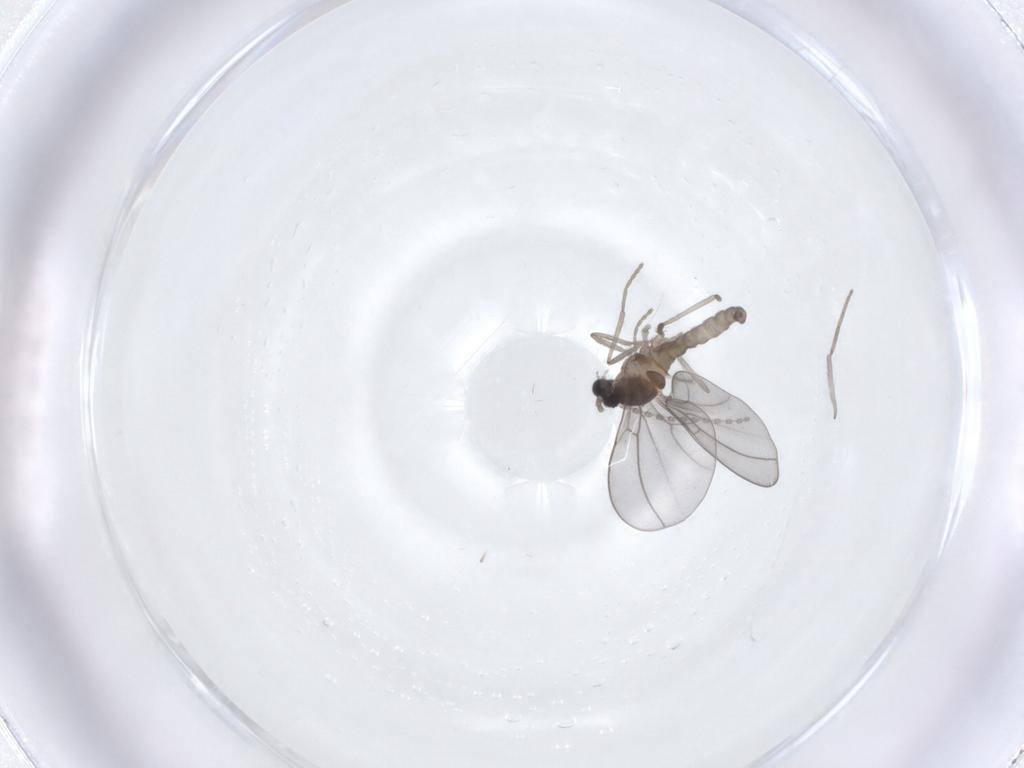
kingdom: Animalia
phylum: Arthropoda
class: Insecta
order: Diptera
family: Cecidomyiidae
